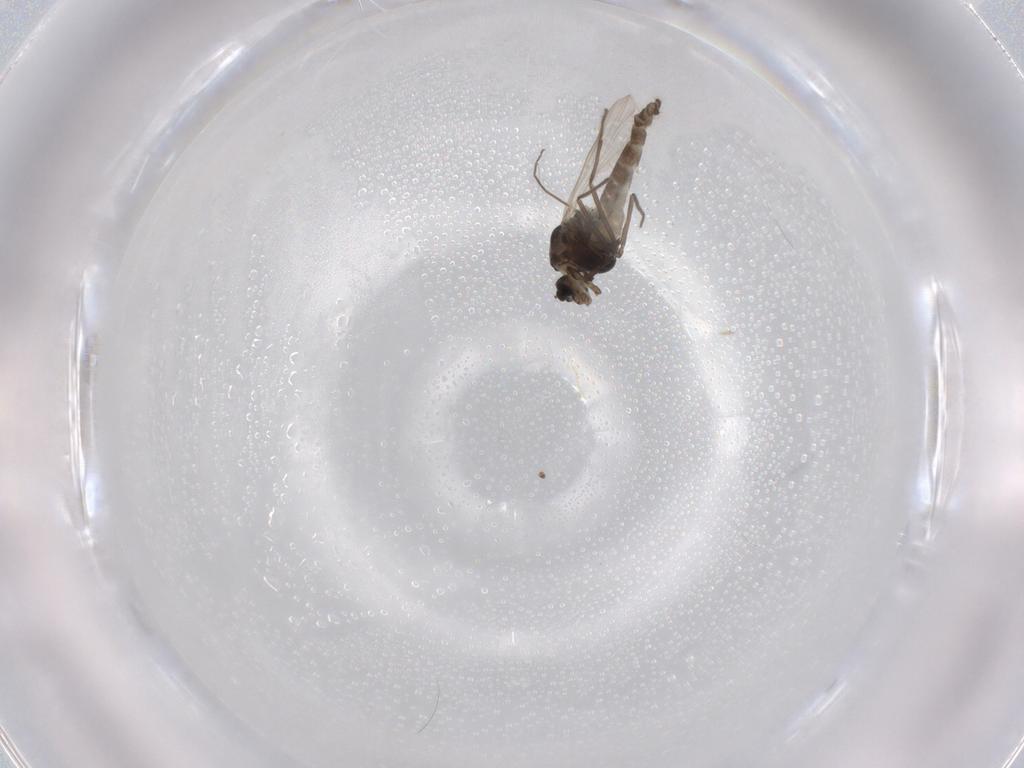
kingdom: Animalia
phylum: Arthropoda
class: Insecta
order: Diptera
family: Chironomidae
